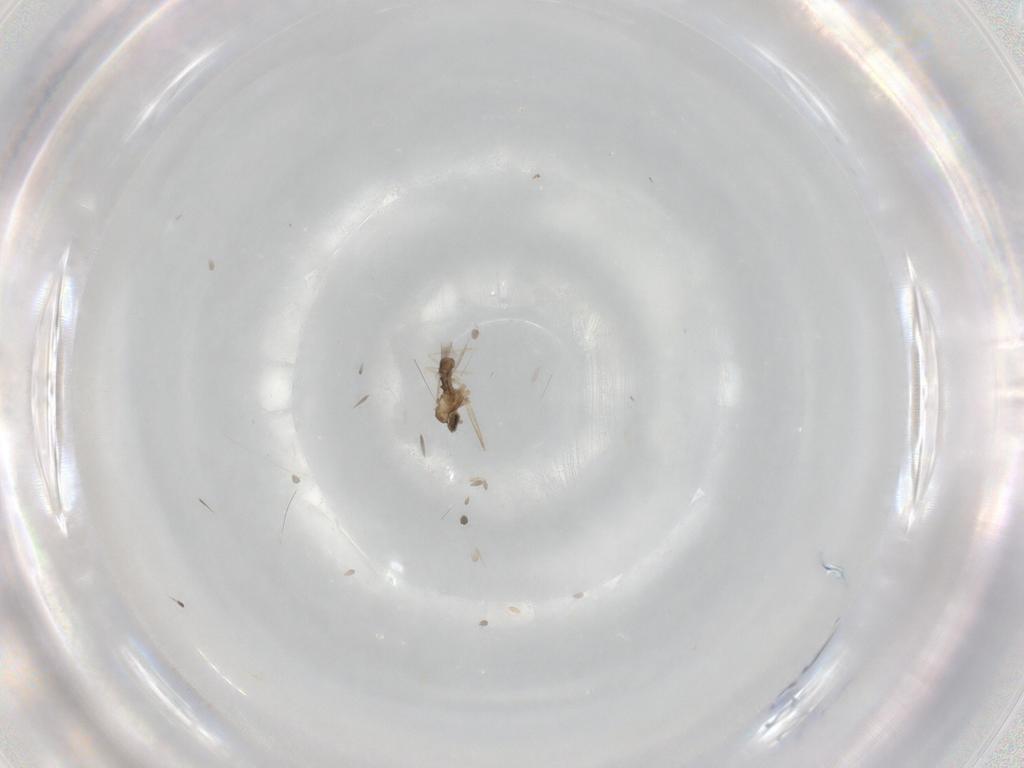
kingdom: Animalia
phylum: Arthropoda
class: Insecta
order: Diptera
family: Cecidomyiidae
